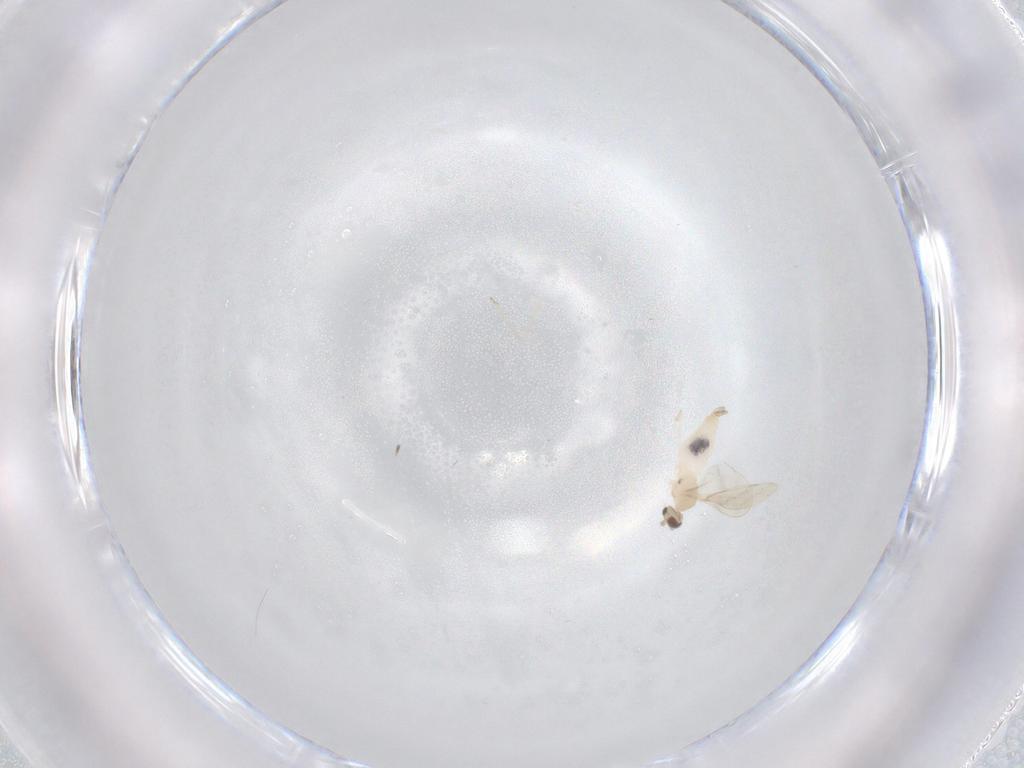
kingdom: Animalia
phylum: Arthropoda
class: Insecta
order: Diptera
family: Cecidomyiidae
